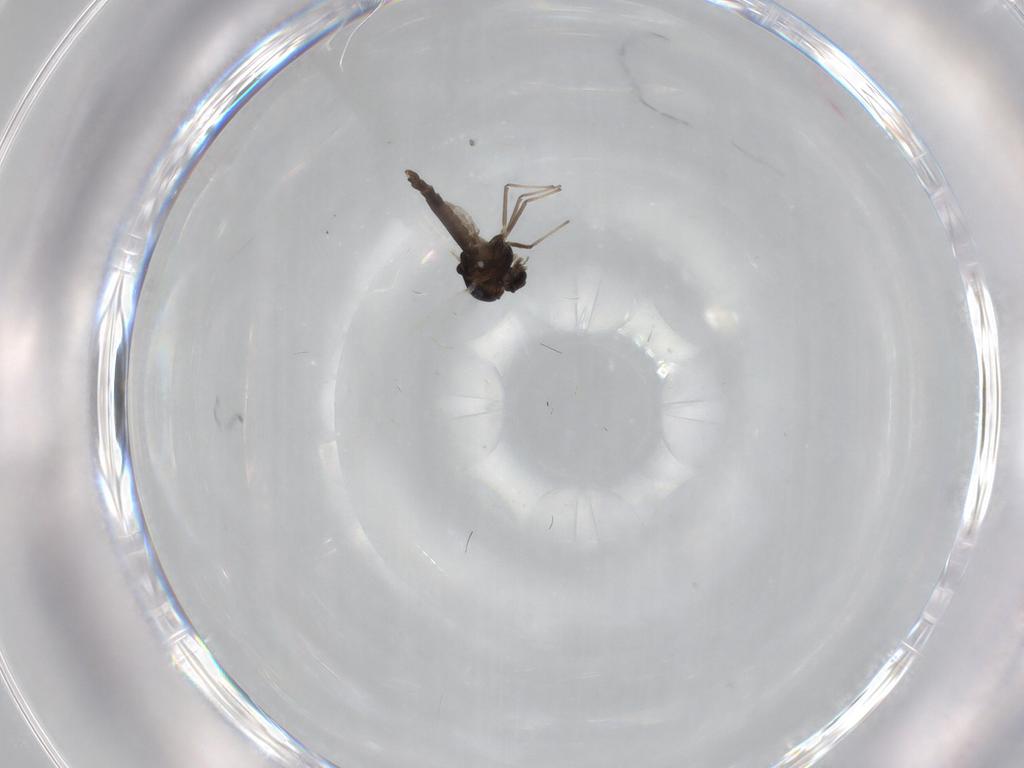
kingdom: Animalia
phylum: Arthropoda
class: Insecta
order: Diptera
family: Chironomidae
